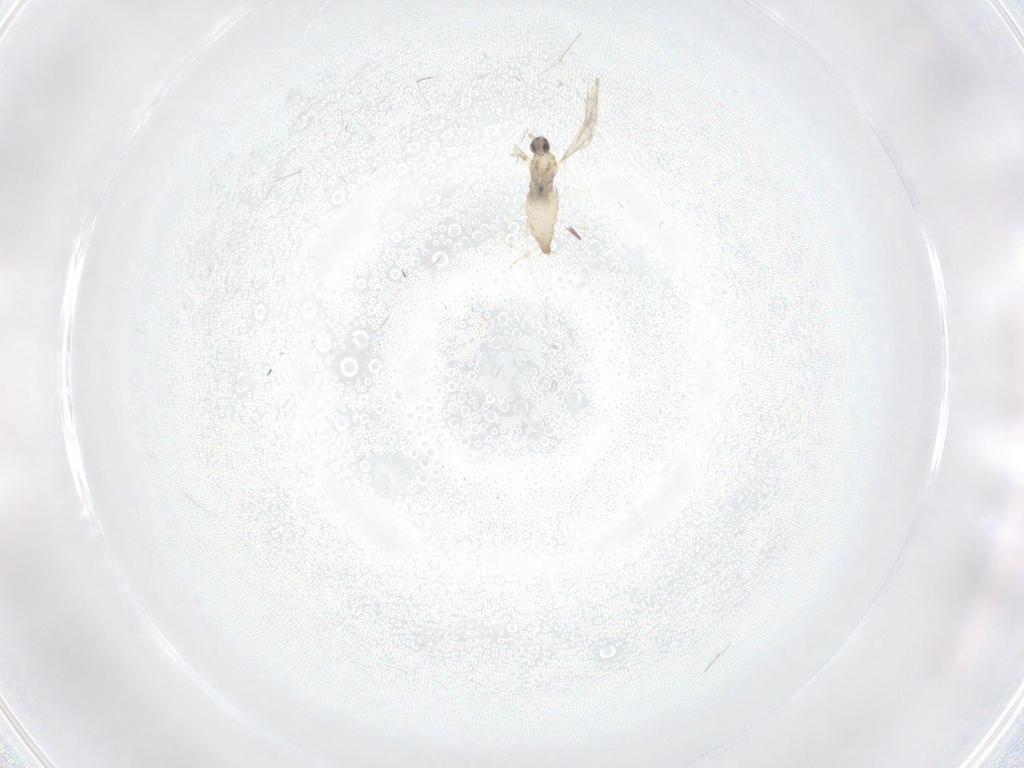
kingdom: Animalia
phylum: Arthropoda
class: Insecta
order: Diptera
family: Cecidomyiidae
